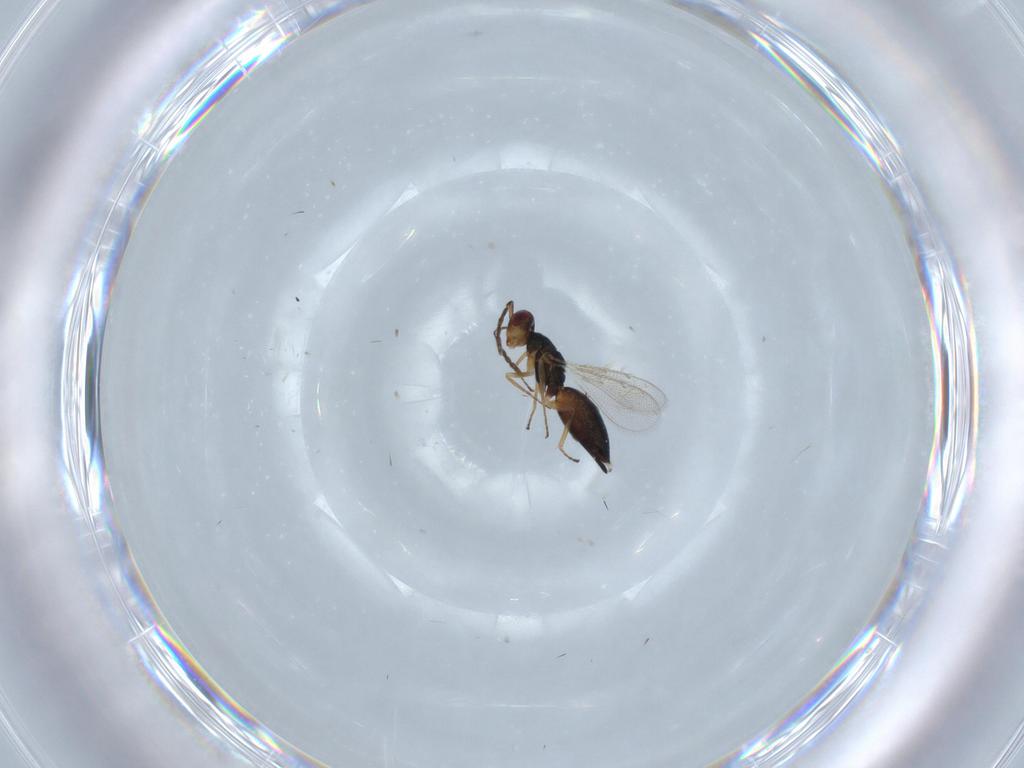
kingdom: Animalia
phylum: Arthropoda
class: Insecta
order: Hymenoptera
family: Eulophidae
